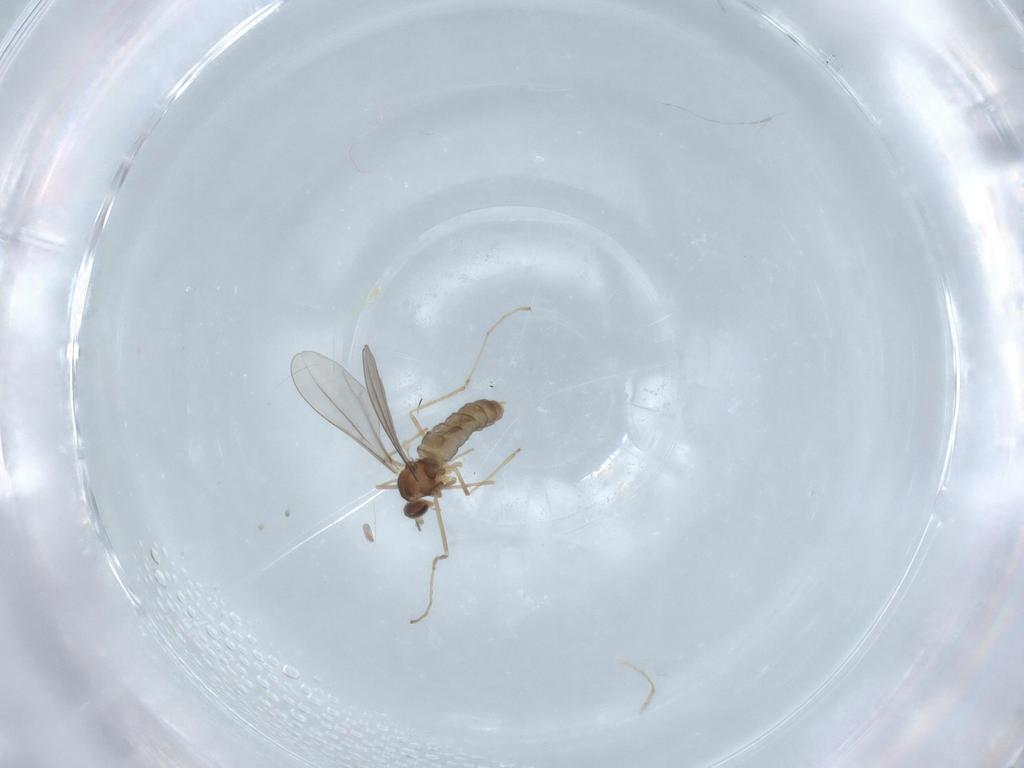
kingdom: Animalia
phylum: Arthropoda
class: Insecta
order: Diptera
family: Cecidomyiidae
